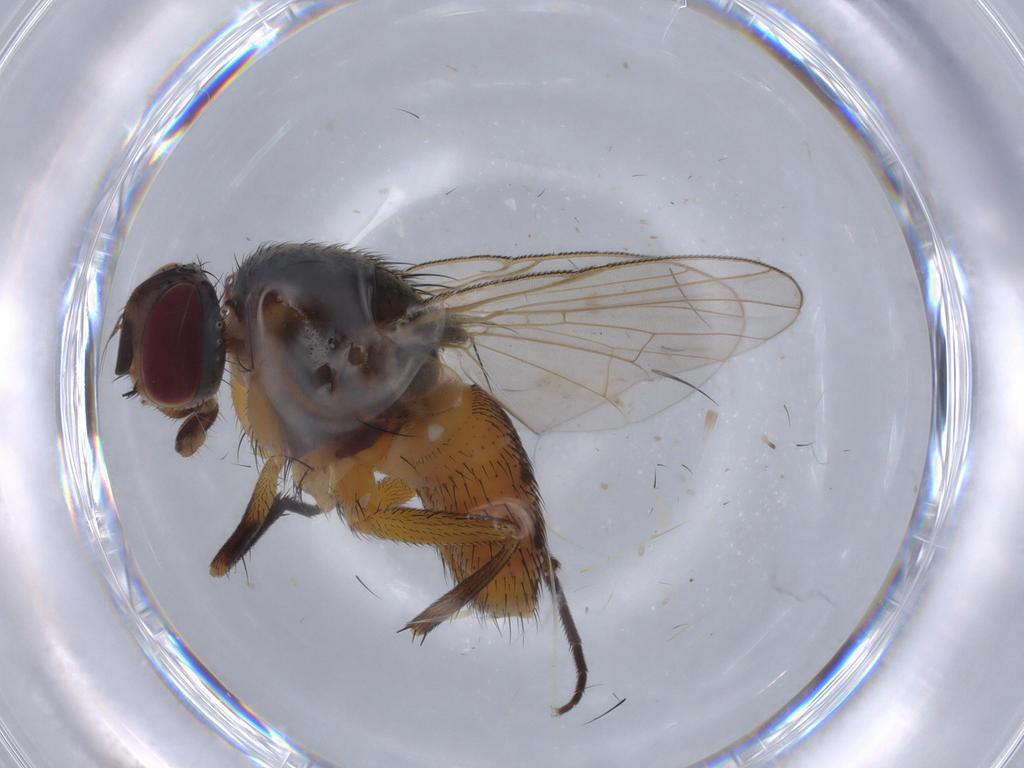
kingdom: Animalia
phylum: Arthropoda
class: Insecta
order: Diptera
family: Muscidae
